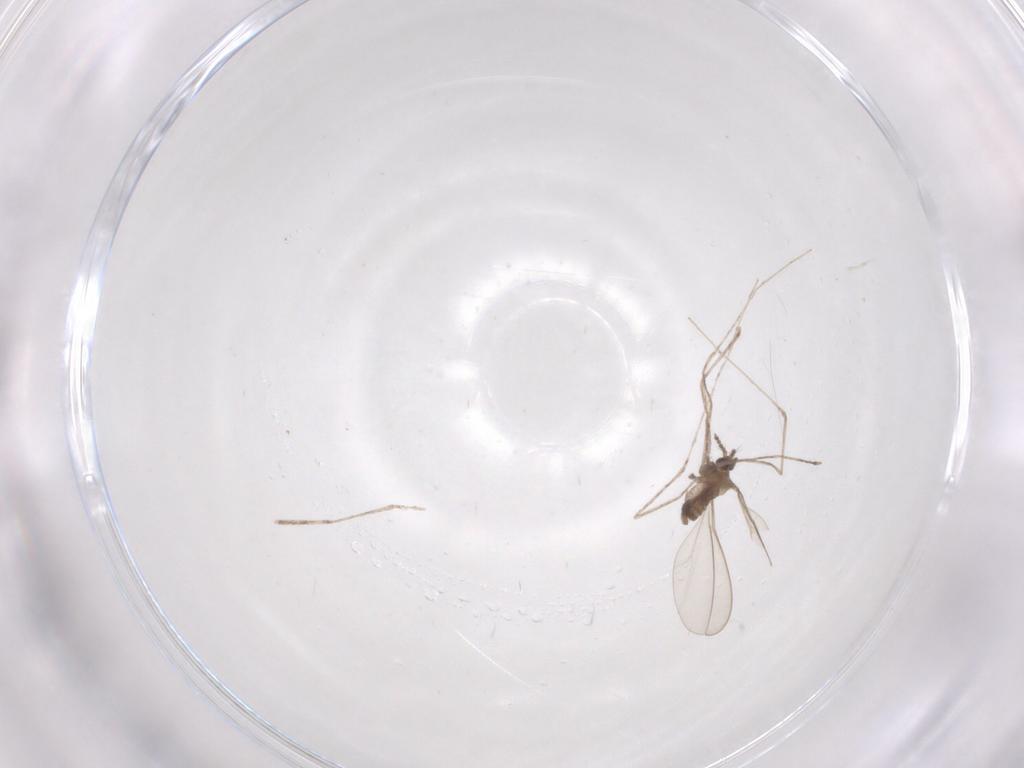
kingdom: Animalia
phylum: Arthropoda
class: Insecta
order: Diptera
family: Cecidomyiidae
